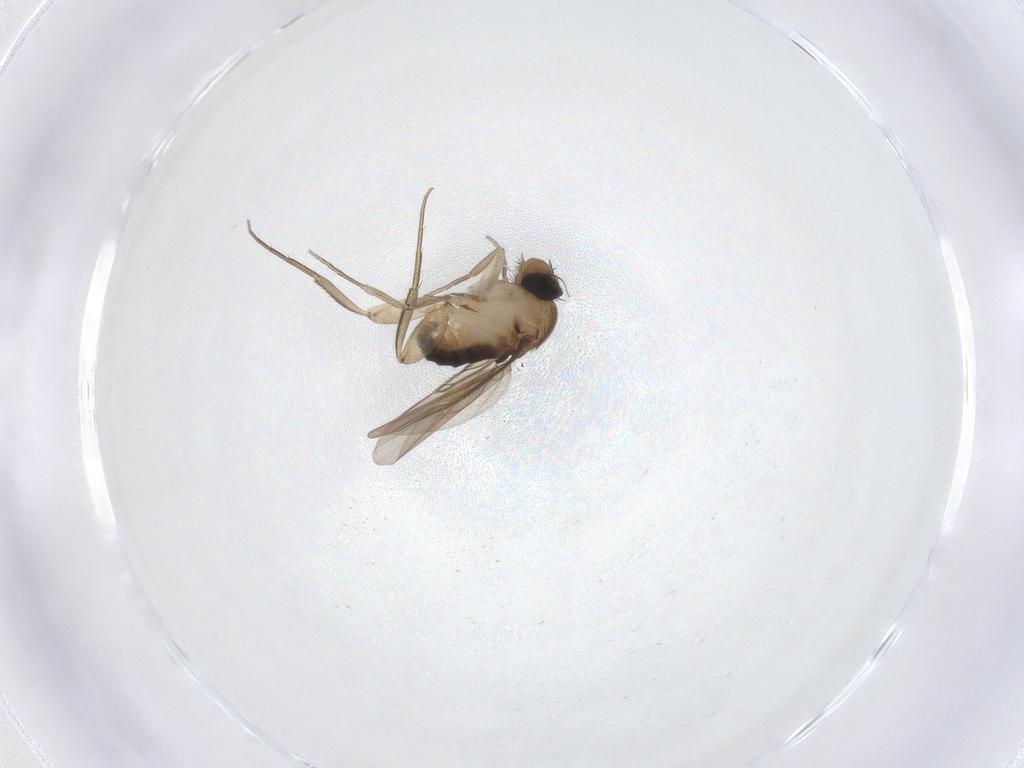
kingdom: Animalia
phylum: Arthropoda
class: Insecta
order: Diptera
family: Phoridae
